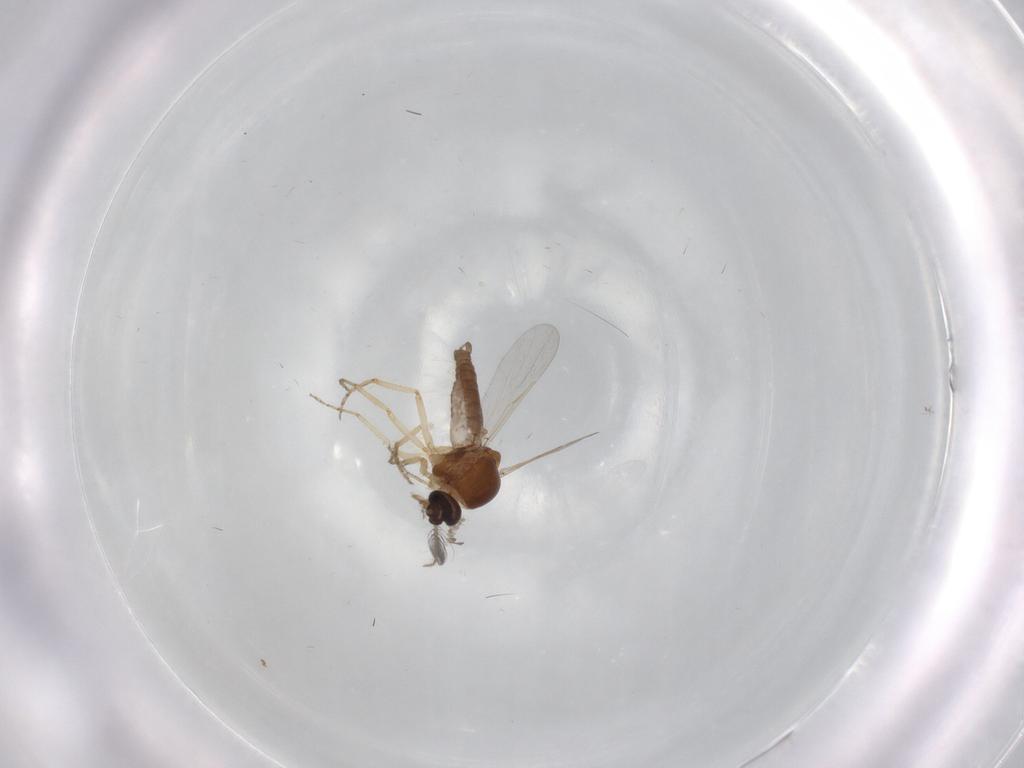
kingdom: Animalia
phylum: Arthropoda
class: Insecta
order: Diptera
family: Ceratopogonidae
